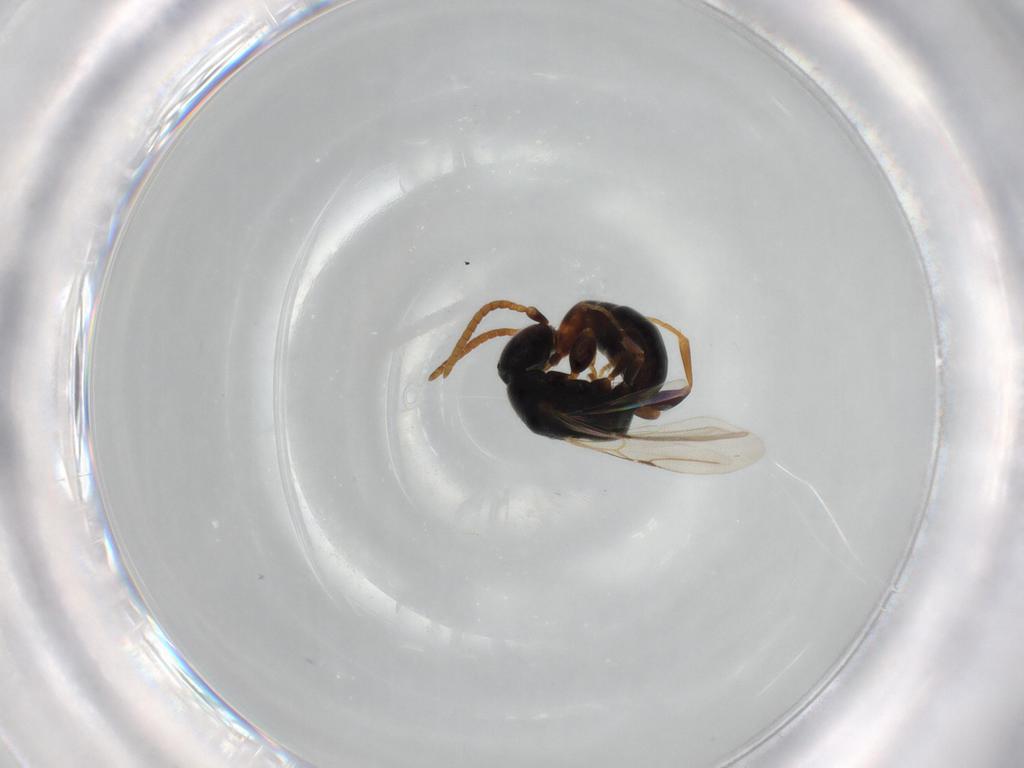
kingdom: Animalia
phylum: Arthropoda
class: Insecta
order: Hymenoptera
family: Bethylidae
